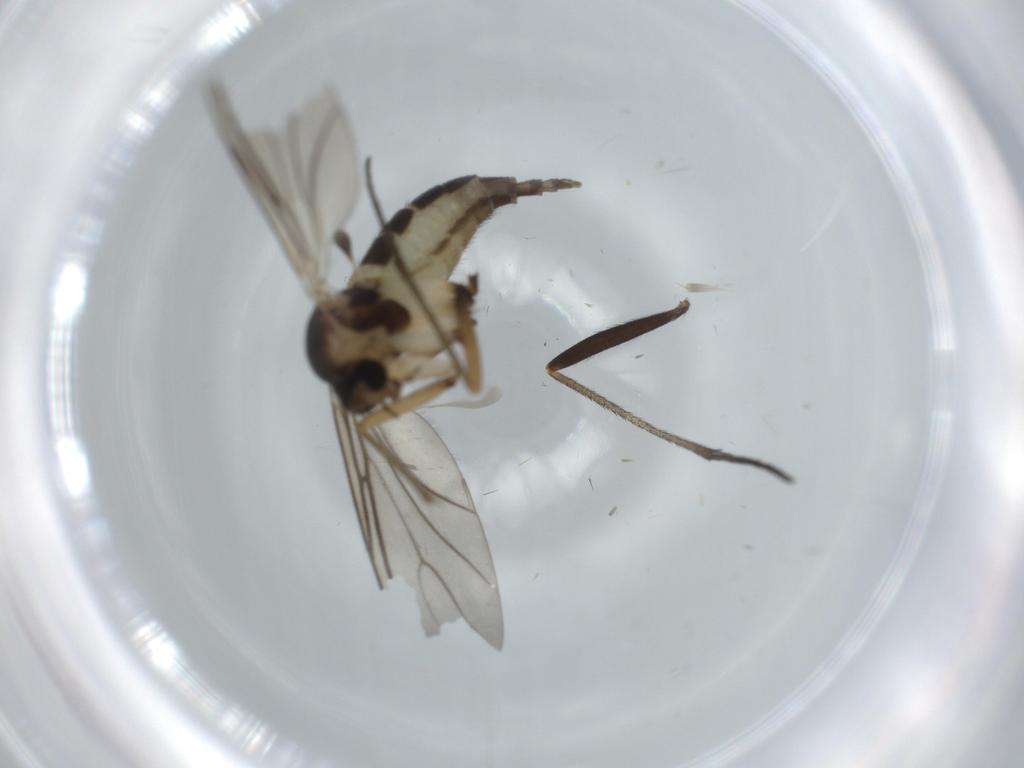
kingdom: Animalia
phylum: Arthropoda
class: Insecta
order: Diptera
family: Sciaridae
